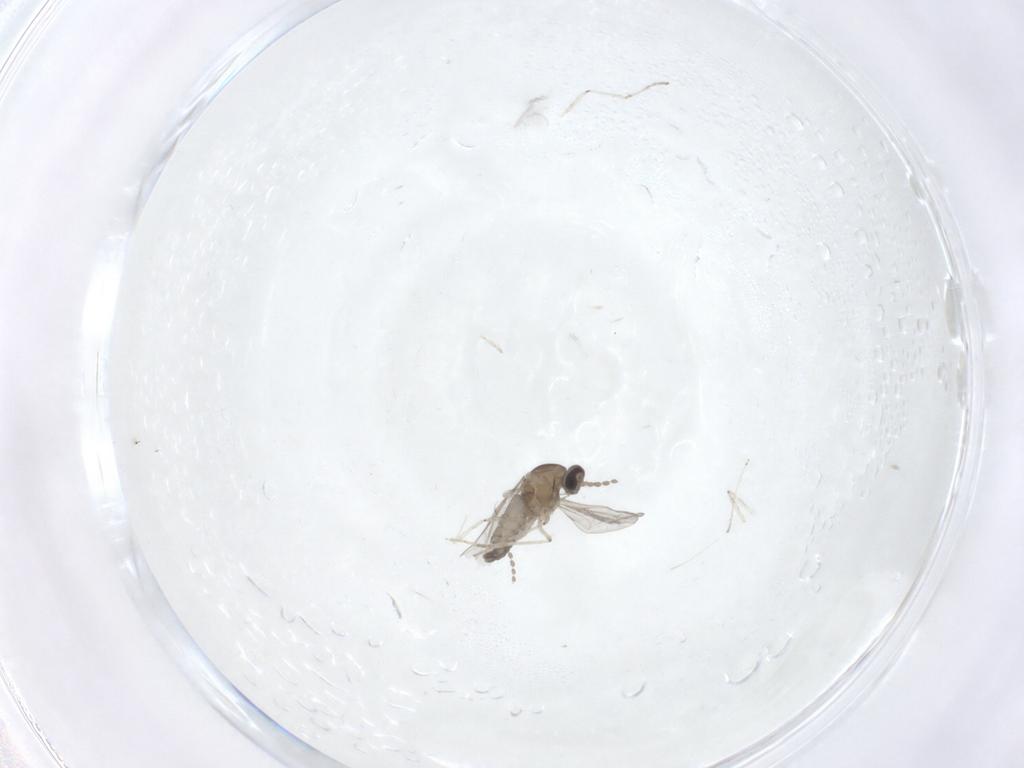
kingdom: Animalia
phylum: Arthropoda
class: Insecta
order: Diptera
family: Cecidomyiidae
